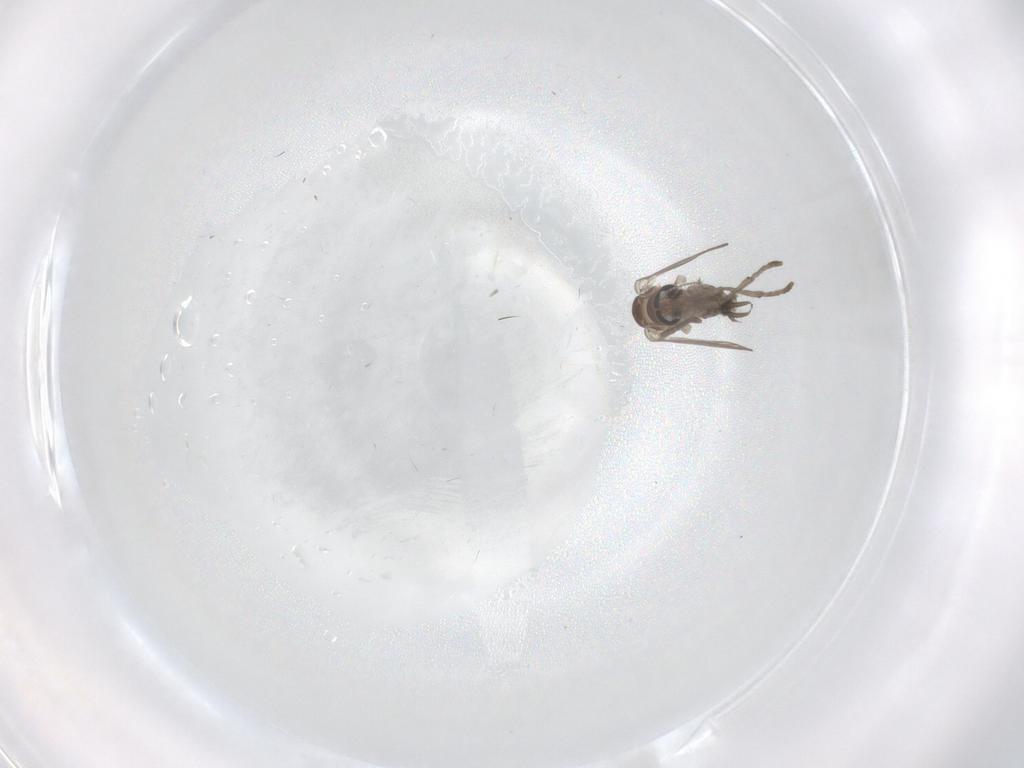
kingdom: Animalia
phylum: Arthropoda
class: Insecta
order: Diptera
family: Psychodidae
